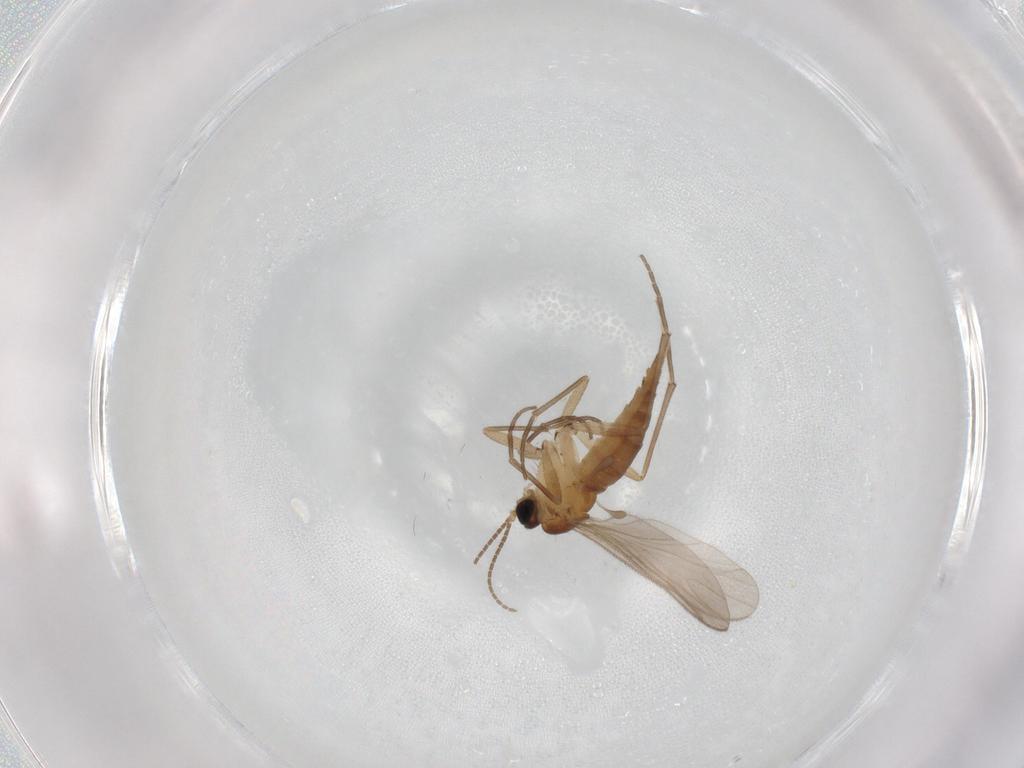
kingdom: Animalia
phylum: Arthropoda
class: Insecta
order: Diptera
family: Sciaridae
